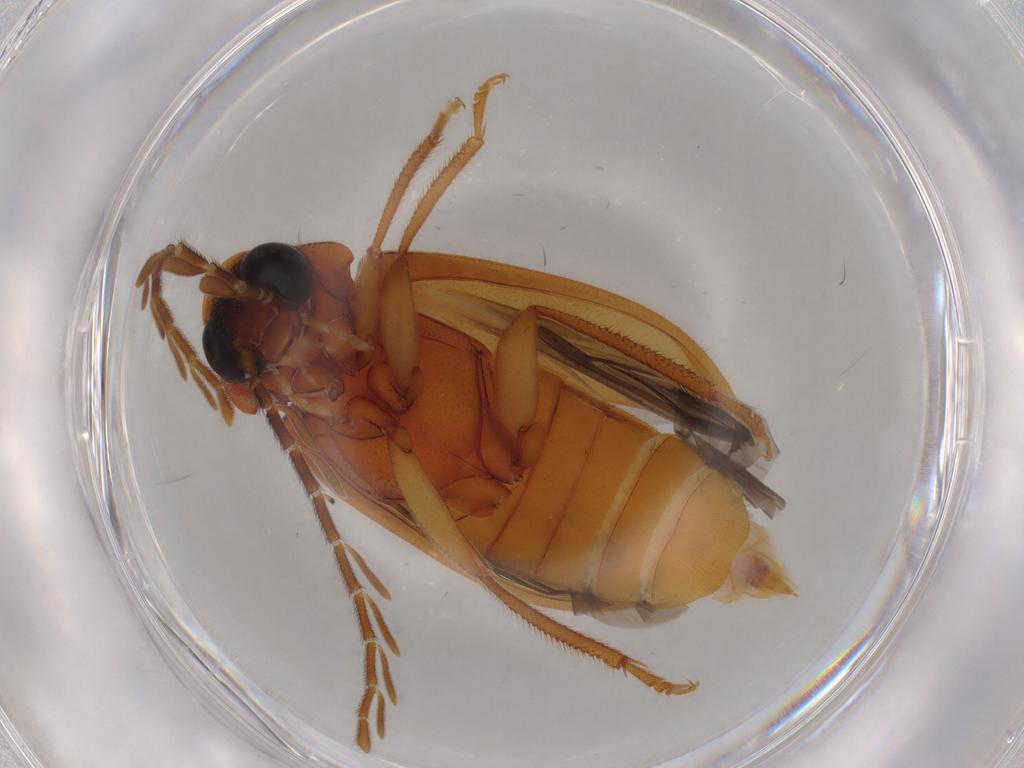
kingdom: Animalia
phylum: Arthropoda
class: Insecta
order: Coleoptera
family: Ptilodactylidae
